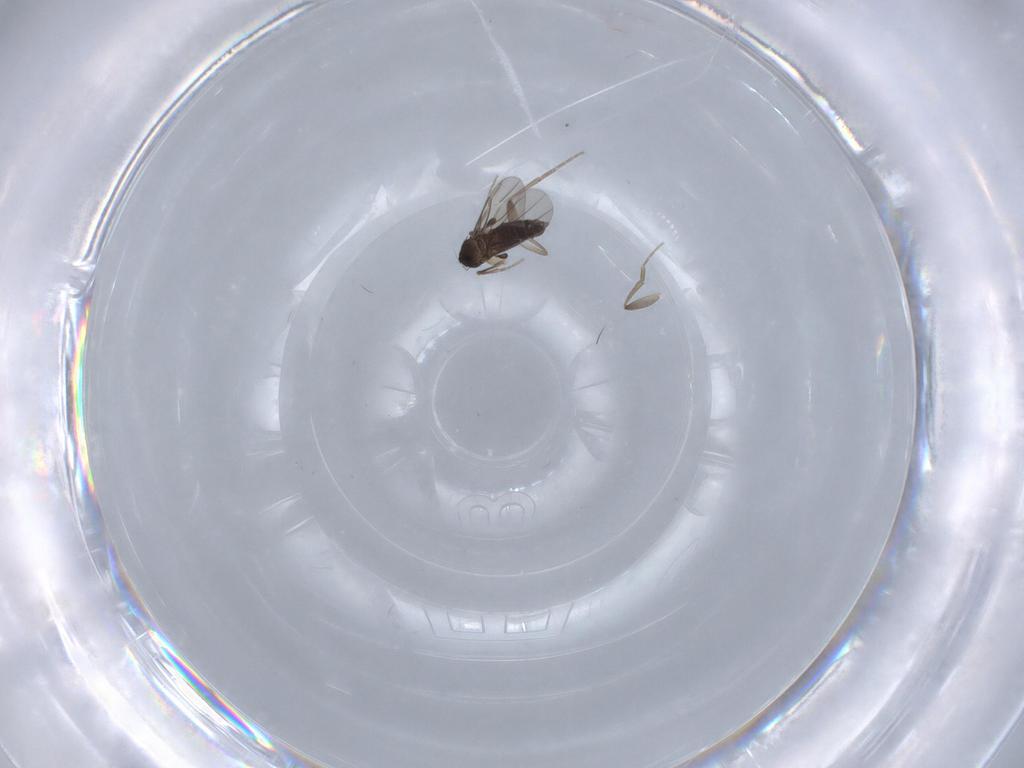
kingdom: Animalia
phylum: Arthropoda
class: Insecta
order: Diptera
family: Phoridae
